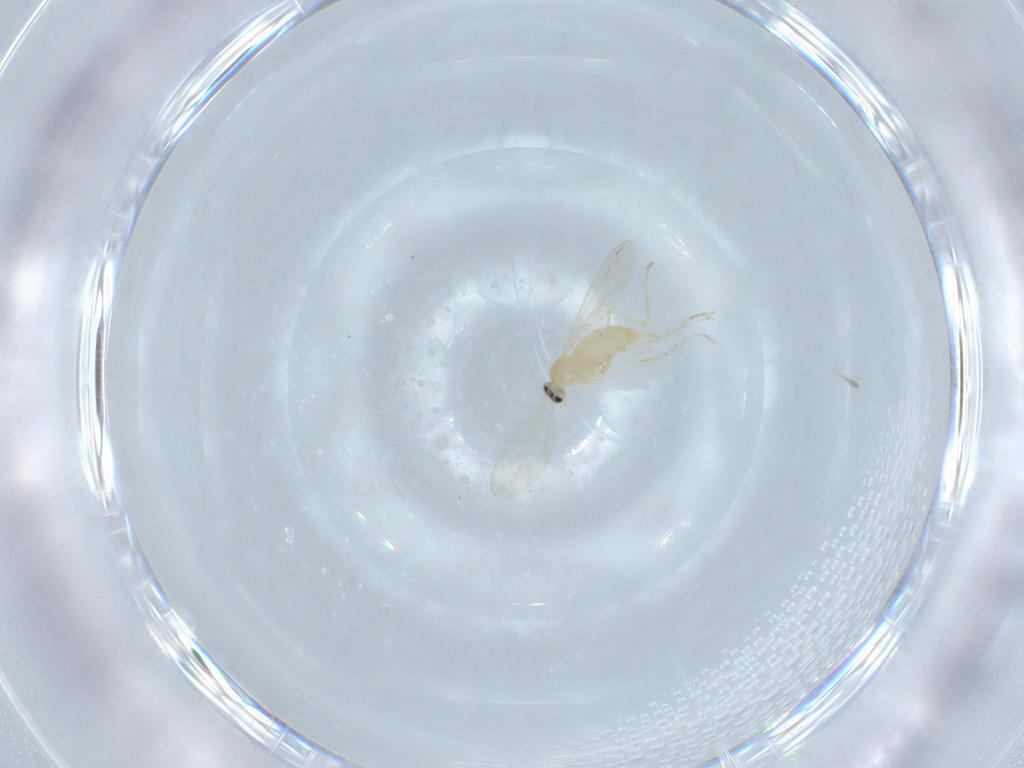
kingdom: Animalia
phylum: Arthropoda
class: Insecta
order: Diptera
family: Cecidomyiidae
